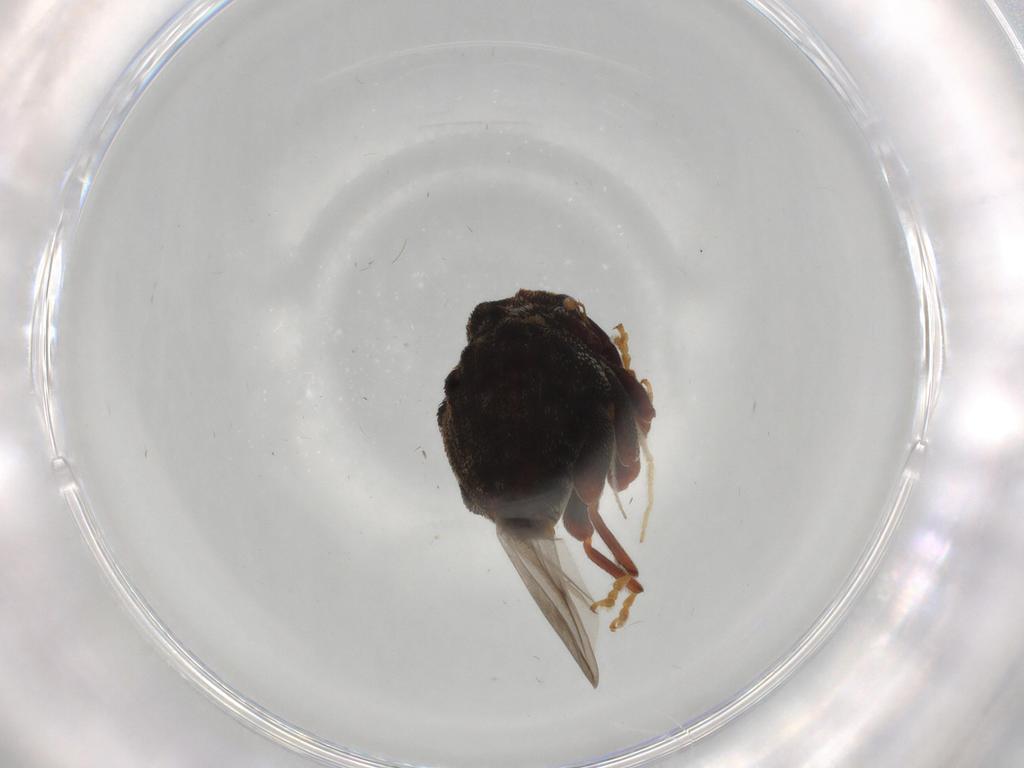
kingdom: Animalia
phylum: Arthropoda
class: Insecta
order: Coleoptera
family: Curculionidae
